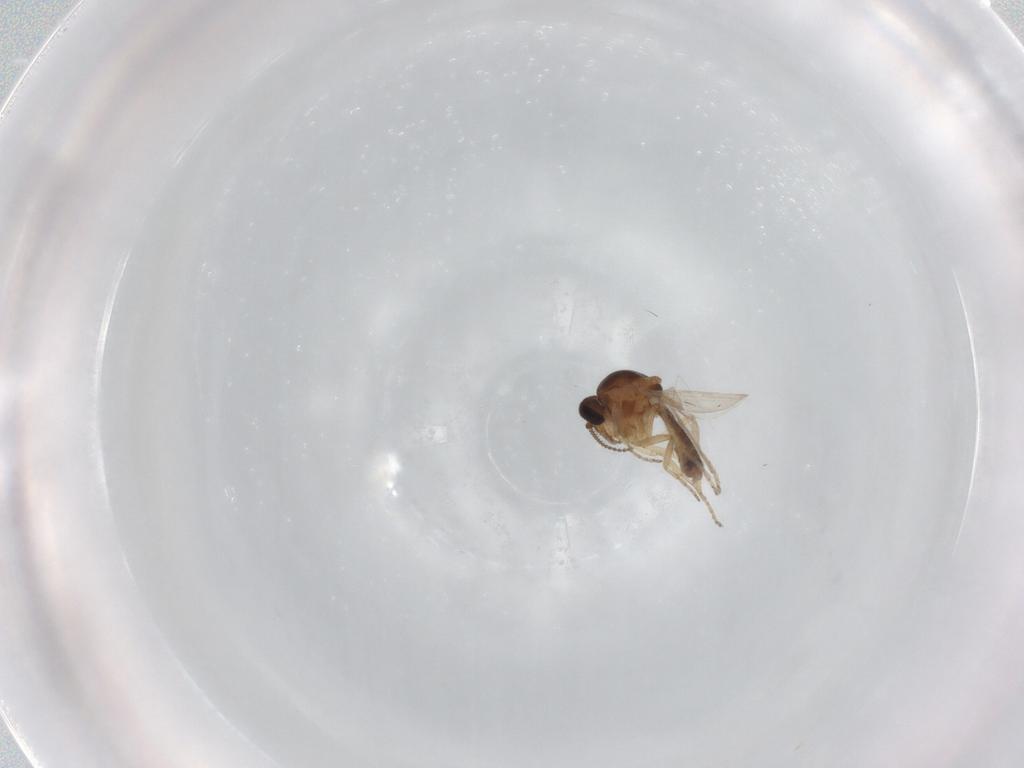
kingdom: Animalia
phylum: Arthropoda
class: Insecta
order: Diptera
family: Ceratopogonidae
